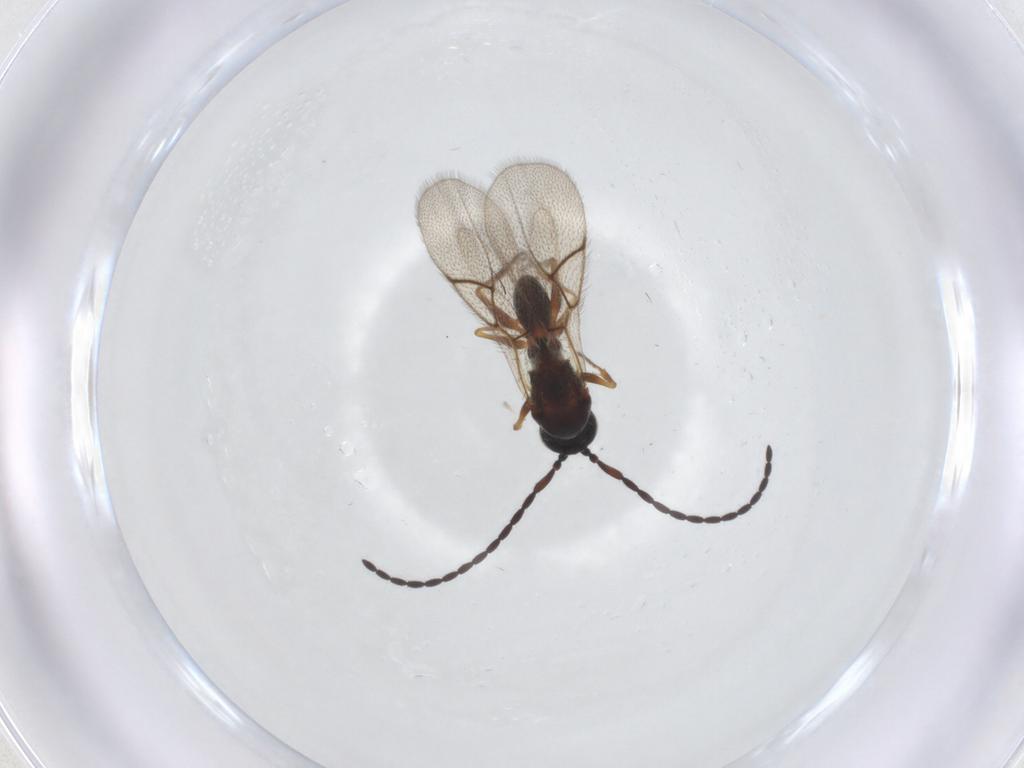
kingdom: Animalia
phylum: Arthropoda
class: Insecta
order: Hymenoptera
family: Figitidae
